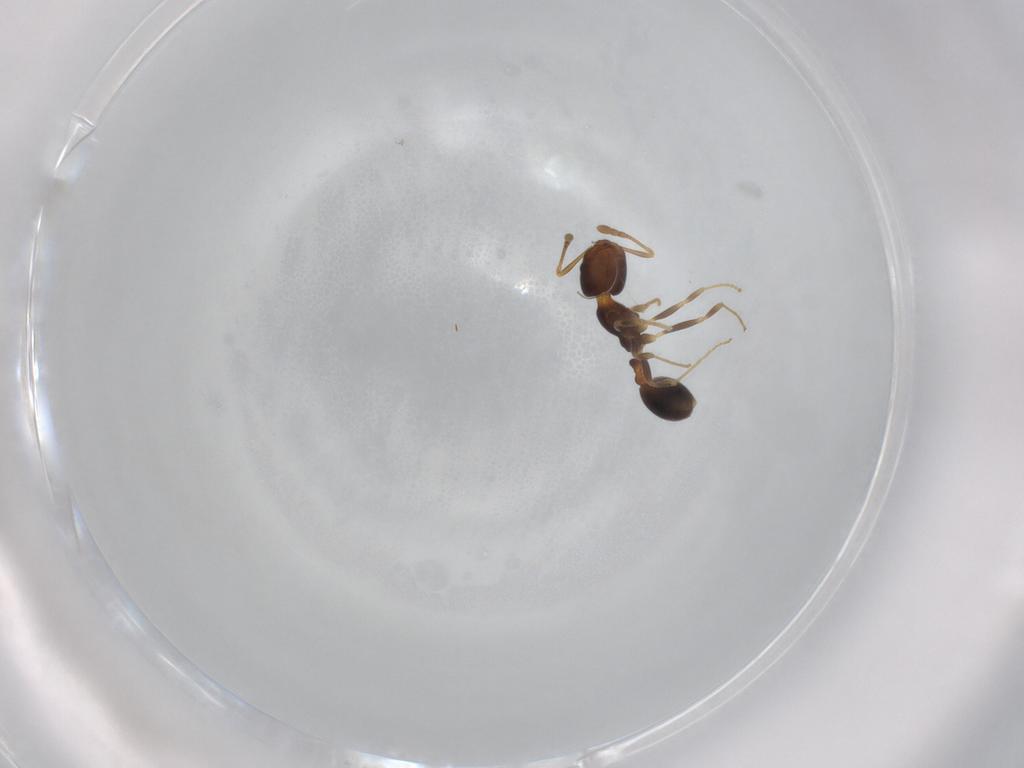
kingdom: Animalia
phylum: Arthropoda
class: Insecta
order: Hymenoptera
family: Formicidae
